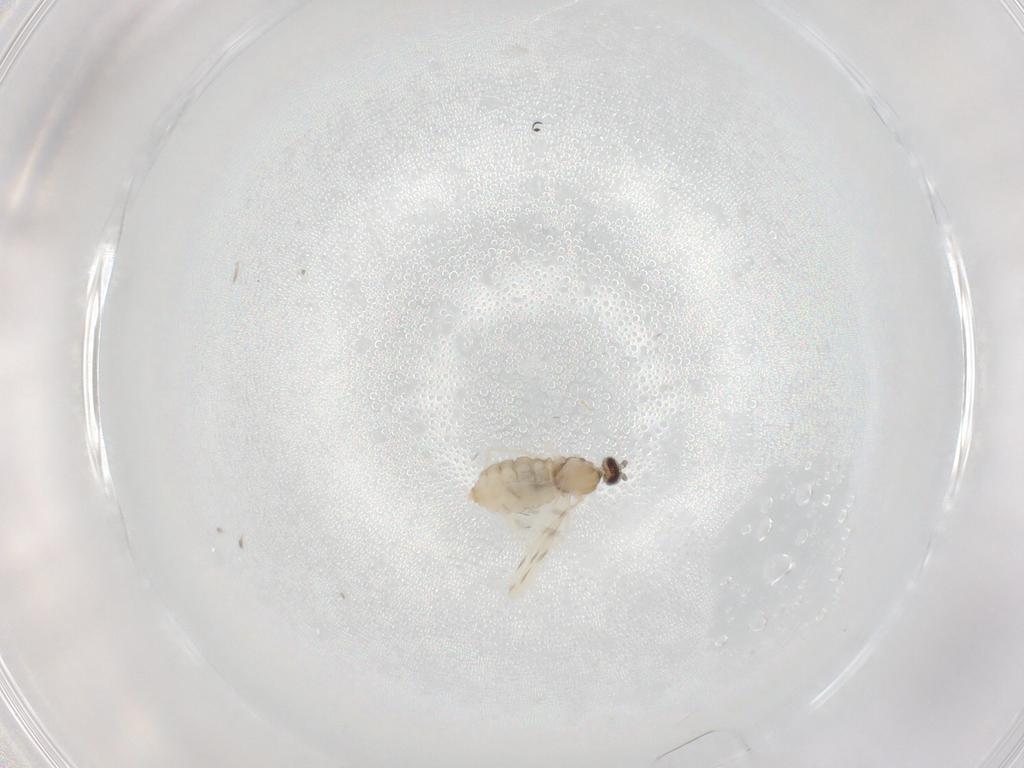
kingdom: Animalia
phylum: Arthropoda
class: Insecta
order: Diptera
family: Cecidomyiidae
